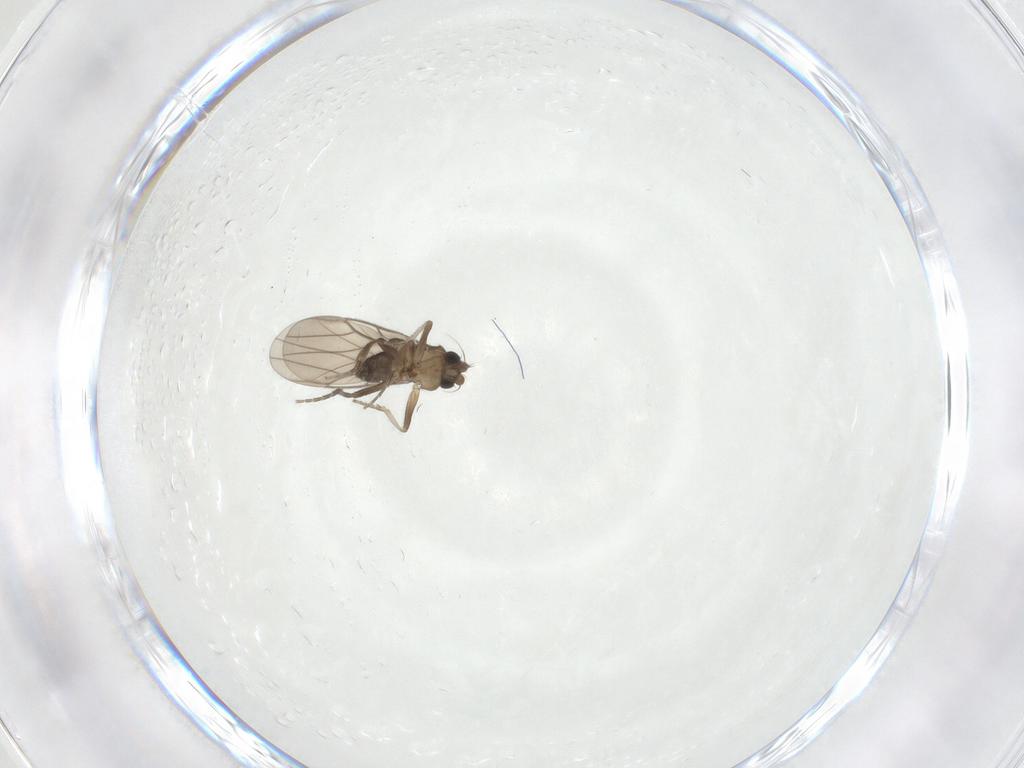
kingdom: Animalia
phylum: Arthropoda
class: Insecta
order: Diptera
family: Limoniidae
